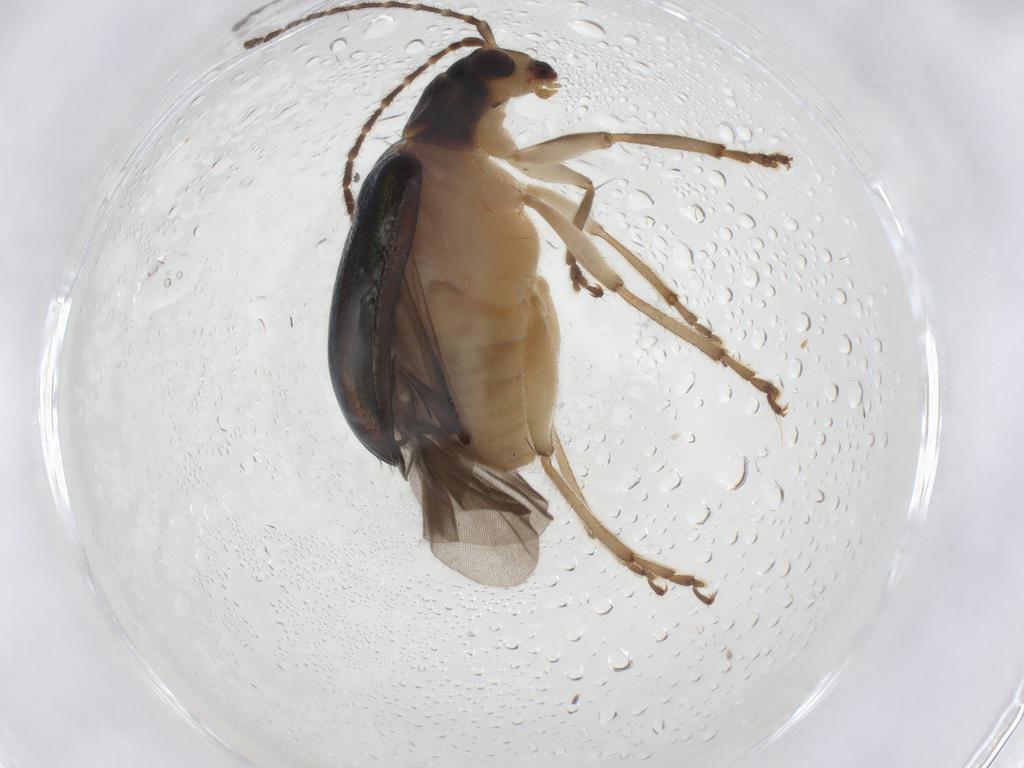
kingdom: Animalia
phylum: Arthropoda
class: Insecta
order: Coleoptera
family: Chrysomelidae
